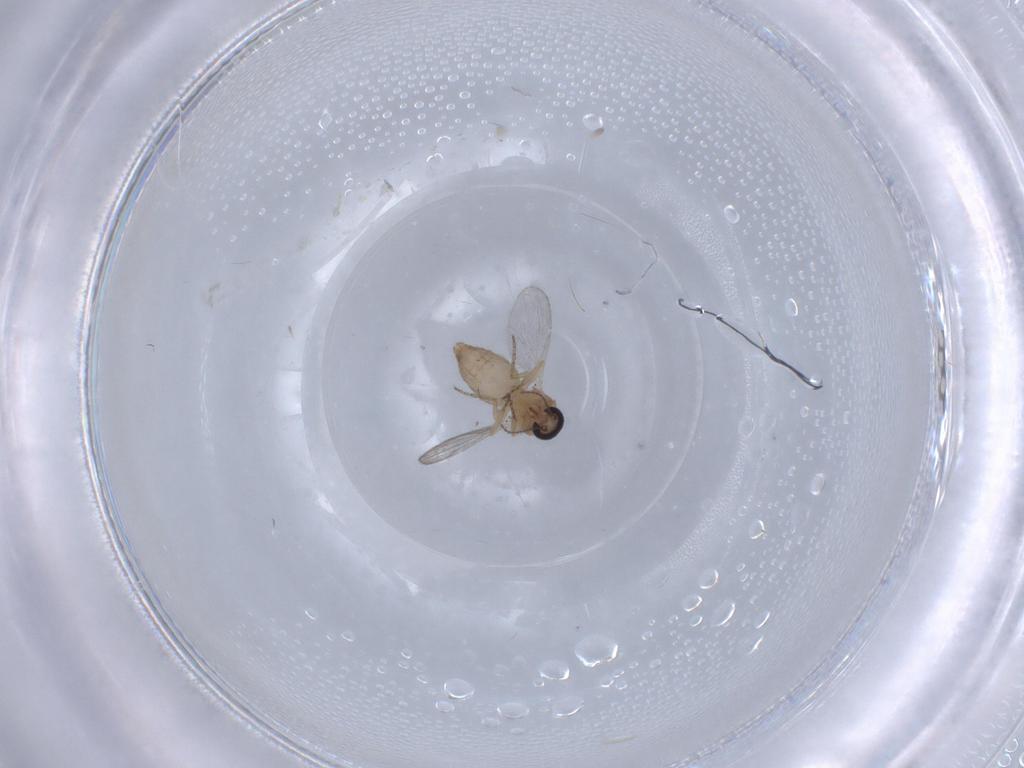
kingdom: Animalia
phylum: Arthropoda
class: Insecta
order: Diptera
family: Ceratopogonidae
